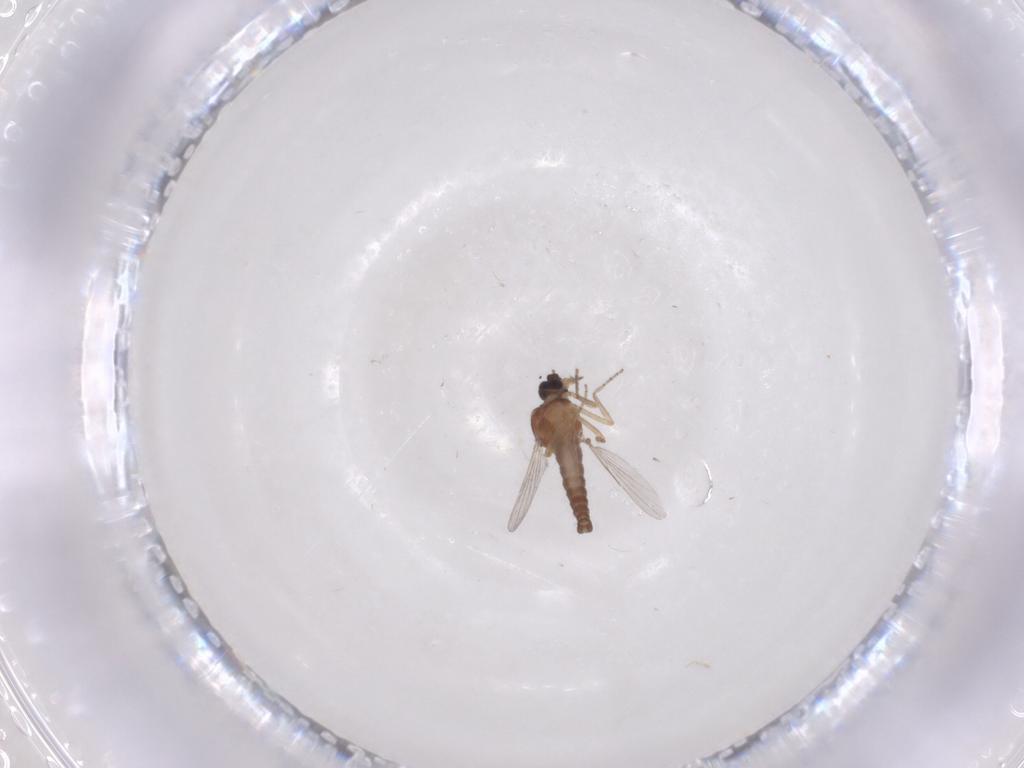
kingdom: Animalia
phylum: Arthropoda
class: Insecta
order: Diptera
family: Ceratopogonidae
